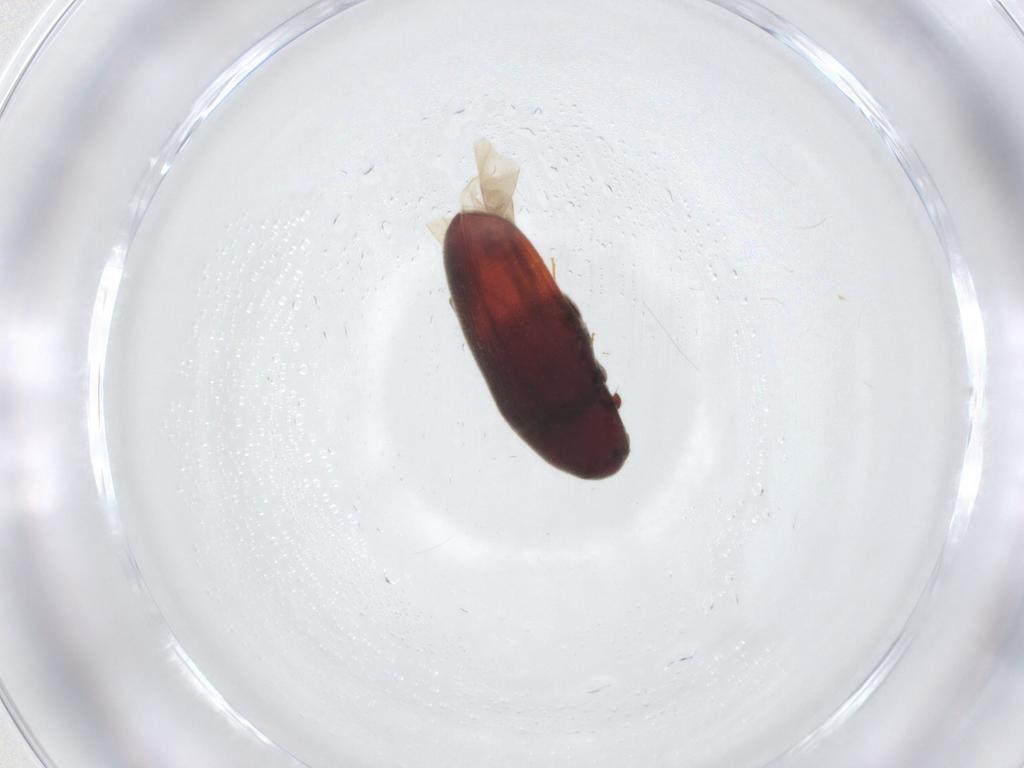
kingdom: Animalia
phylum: Arthropoda
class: Insecta
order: Coleoptera
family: Throscidae
